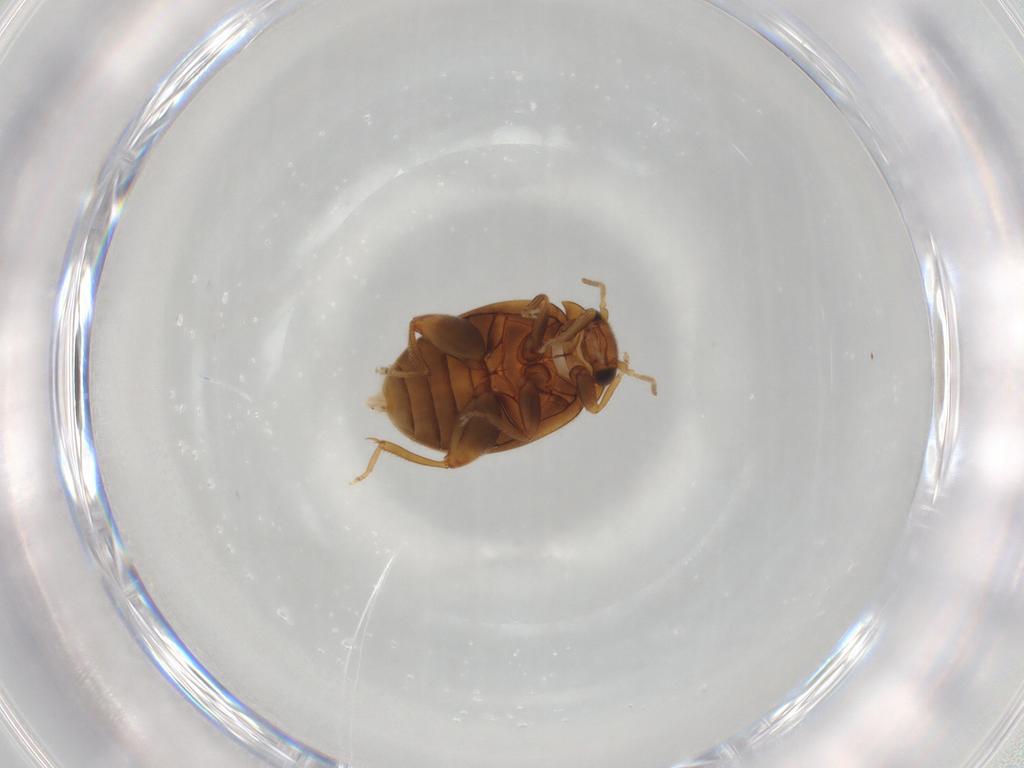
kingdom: Animalia
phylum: Arthropoda
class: Insecta
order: Coleoptera
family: Scirtidae
